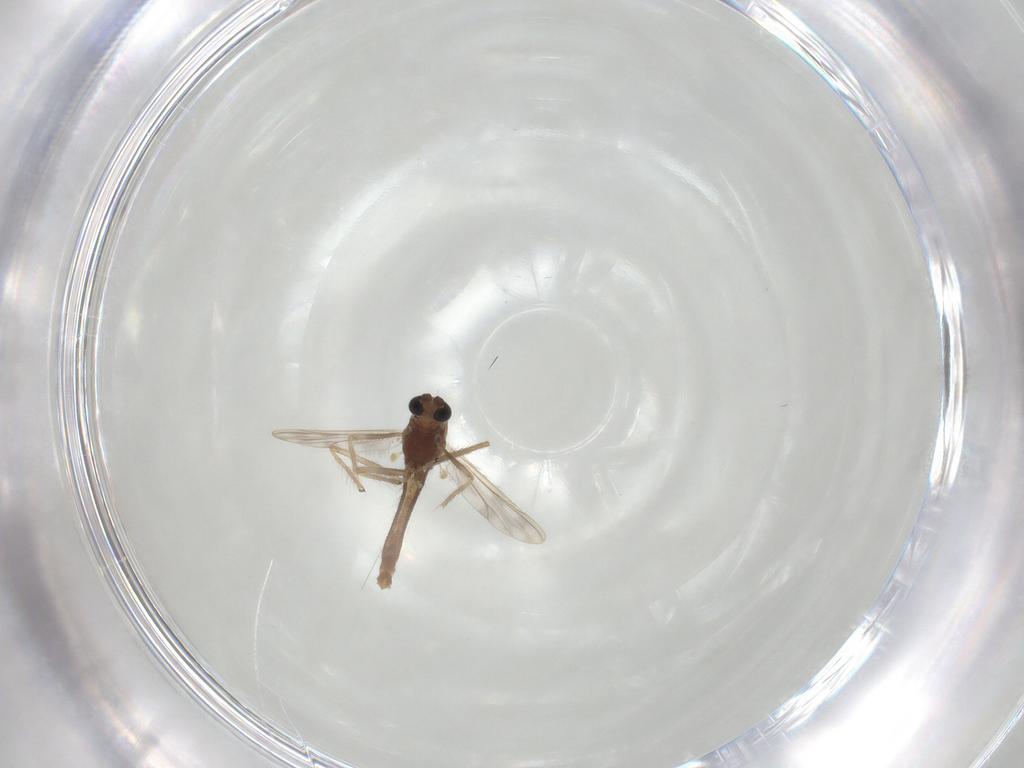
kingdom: Animalia
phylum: Arthropoda
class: Insecta
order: Diptera
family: Chironomidae
